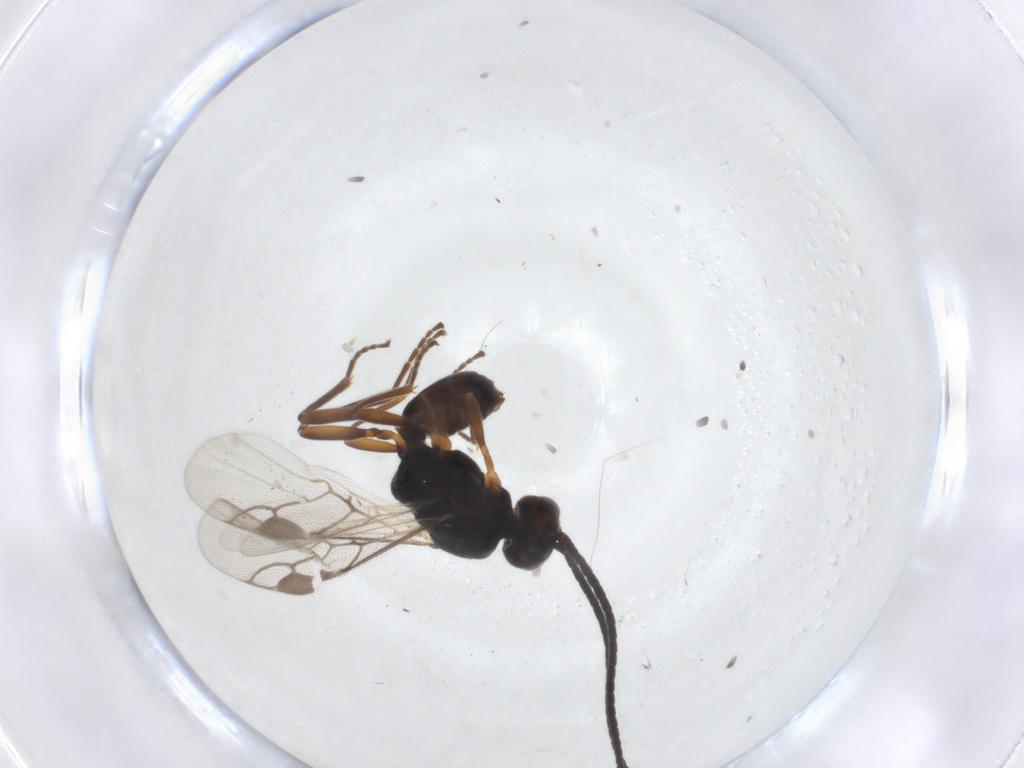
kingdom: Animalia
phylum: Arthropoda
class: Insecta
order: Hymenoptera
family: Braconidae
